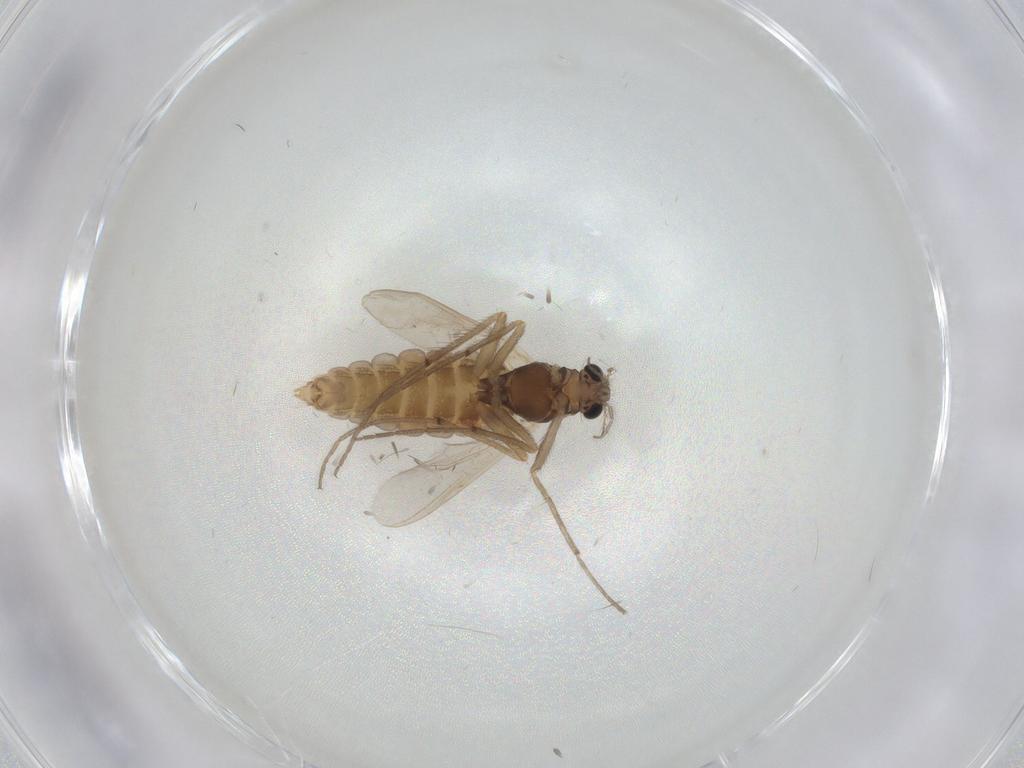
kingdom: Animalia
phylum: Arthropoda
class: Insecta
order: Diptera
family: Chironomidae
